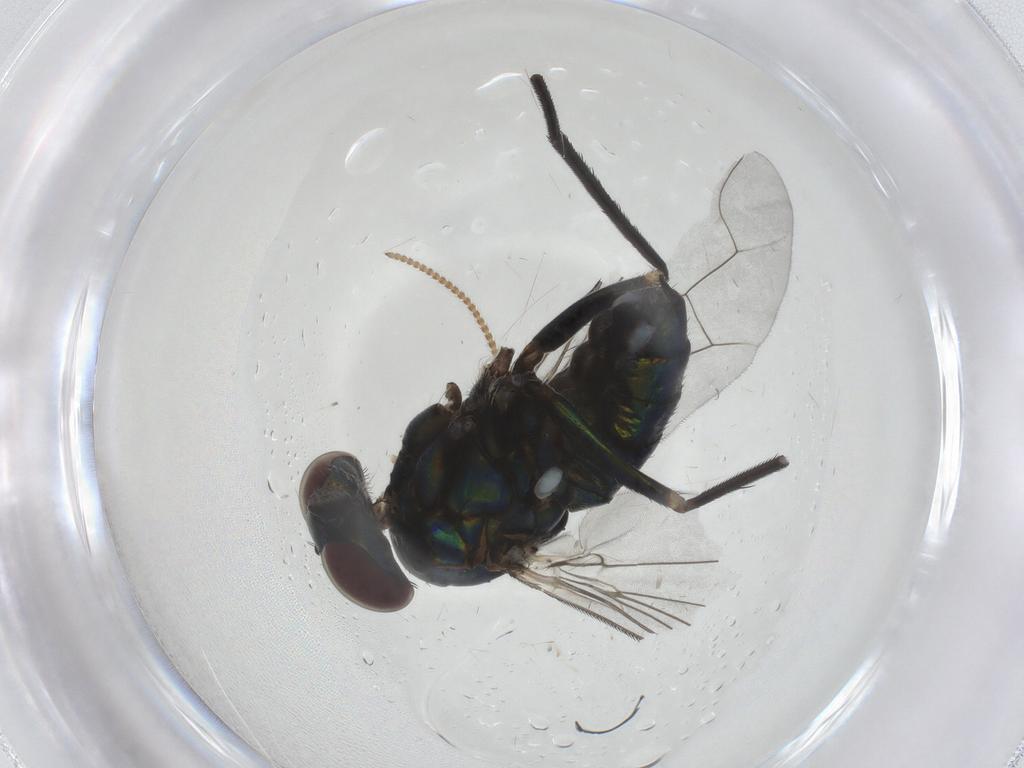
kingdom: Animalia
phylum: Arthropoda
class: Insecta
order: Diptera
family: Dolichopodidae
